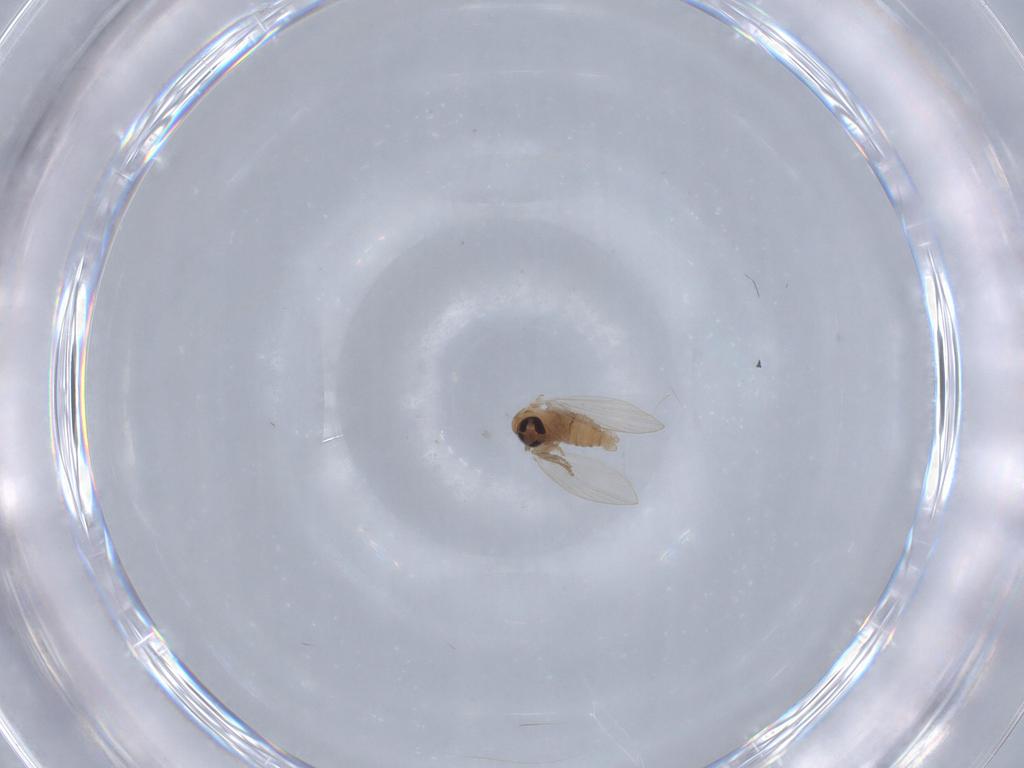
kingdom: Animalia
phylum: Arthropoda
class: Insecta
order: Diptera
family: Psychodidae
